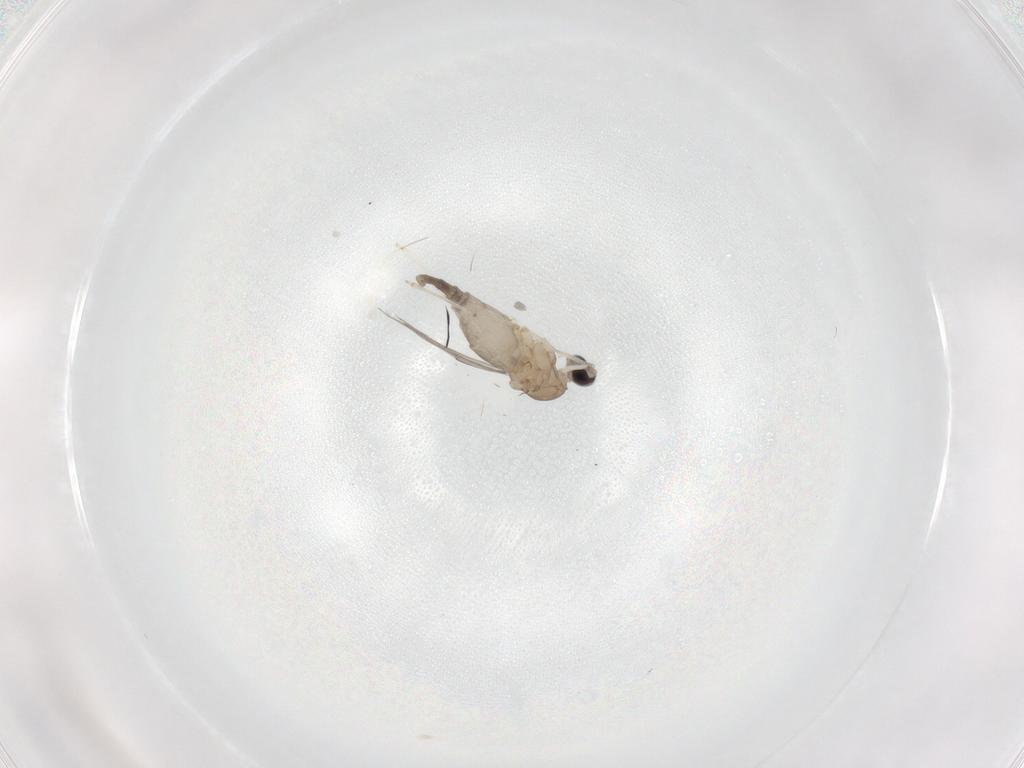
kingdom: Animalia
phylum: Arthropoda
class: Insecta
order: Diptera
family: Cecidomyiidae
